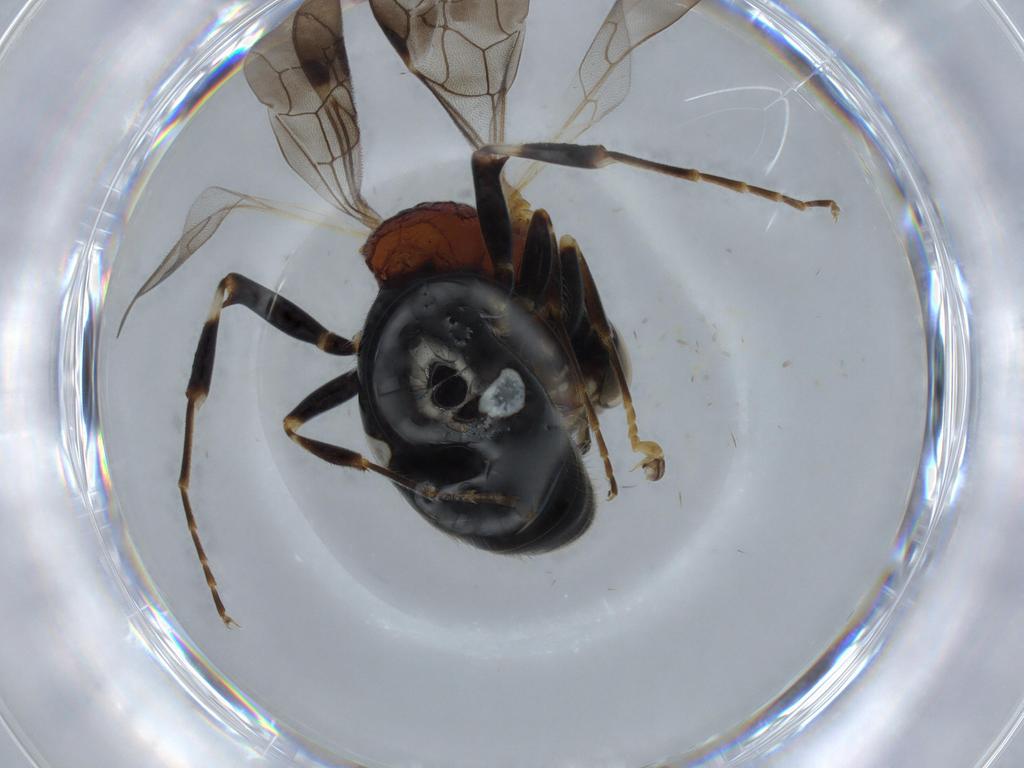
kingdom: Animalia
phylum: Arthropoda
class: Insecta
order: Hymenoptera
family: Bembicidae
